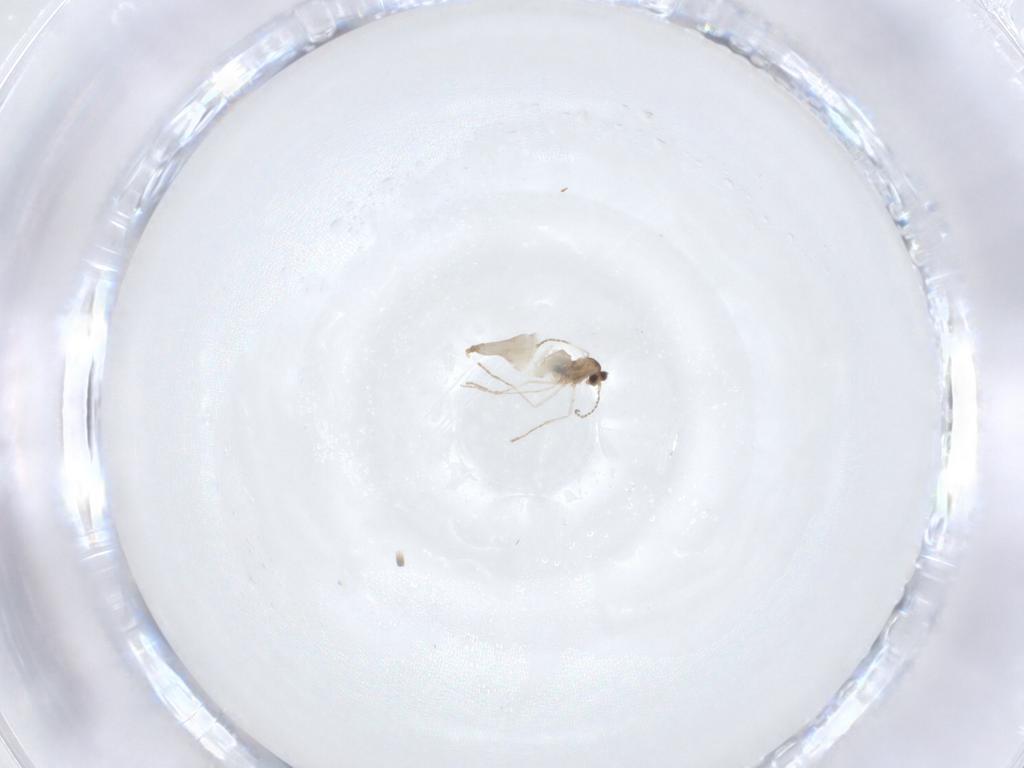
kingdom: Animalia
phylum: Arthropoda
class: Insecta
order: Diptera
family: Cecidomyiidae
